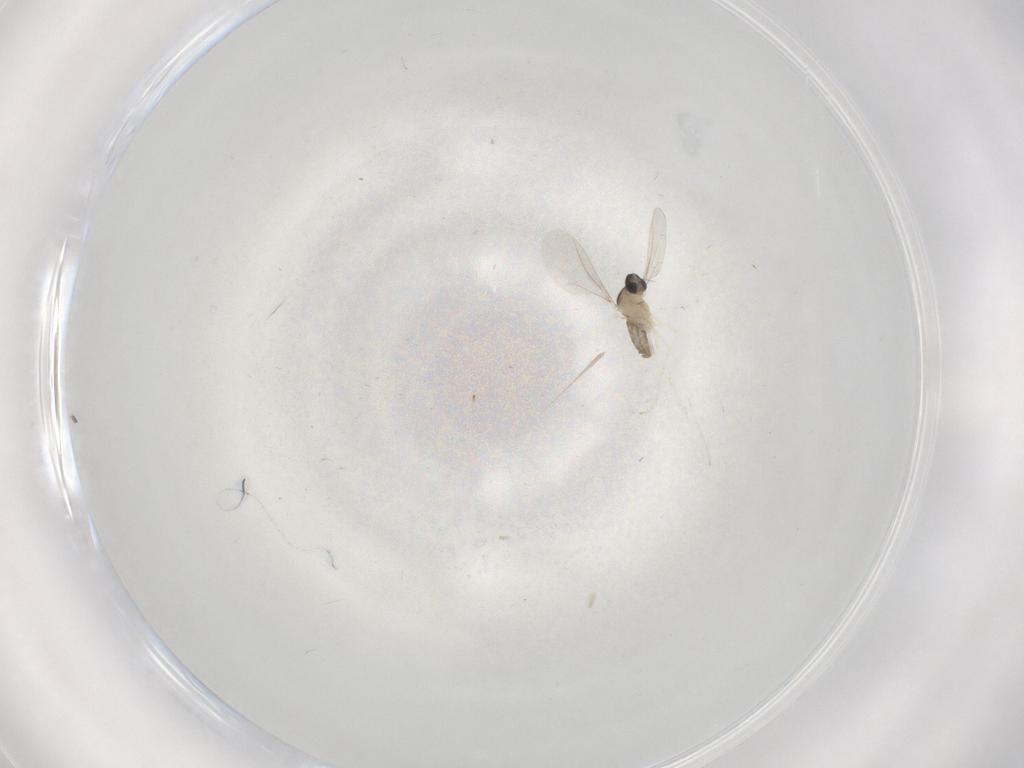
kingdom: Animalia
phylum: Arthropoda
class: Insecta
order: Diptera
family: Cecidomyiidae
